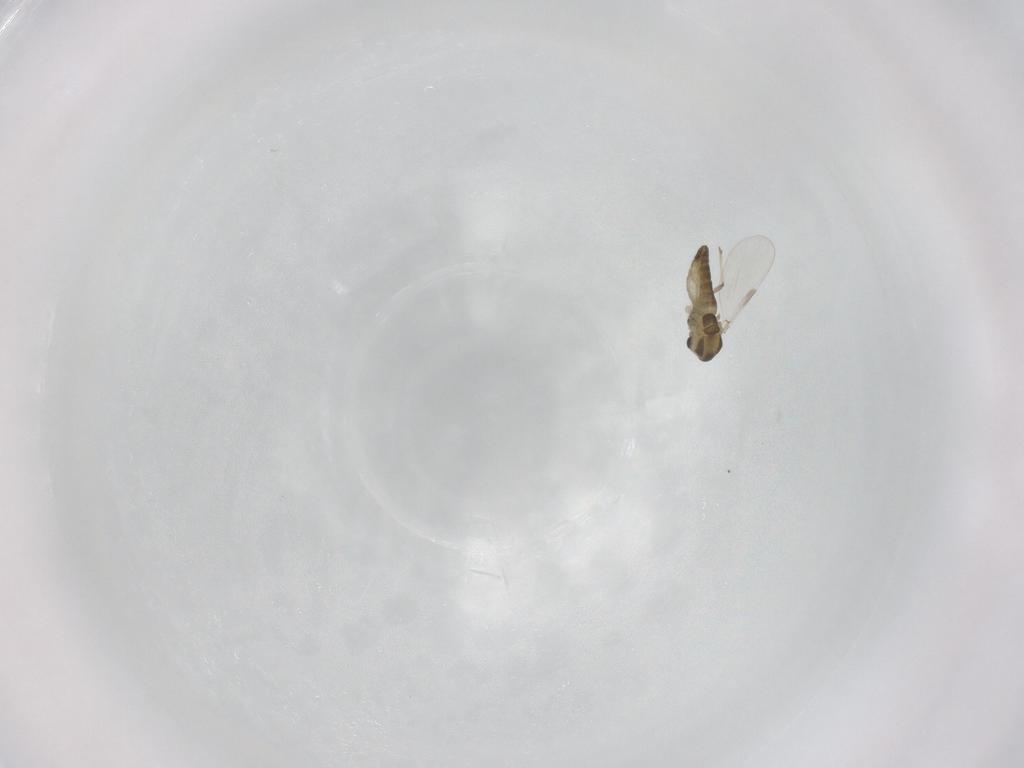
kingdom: Animalia
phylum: Arthropoda
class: Insecta
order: Diptera
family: Chironomidae
